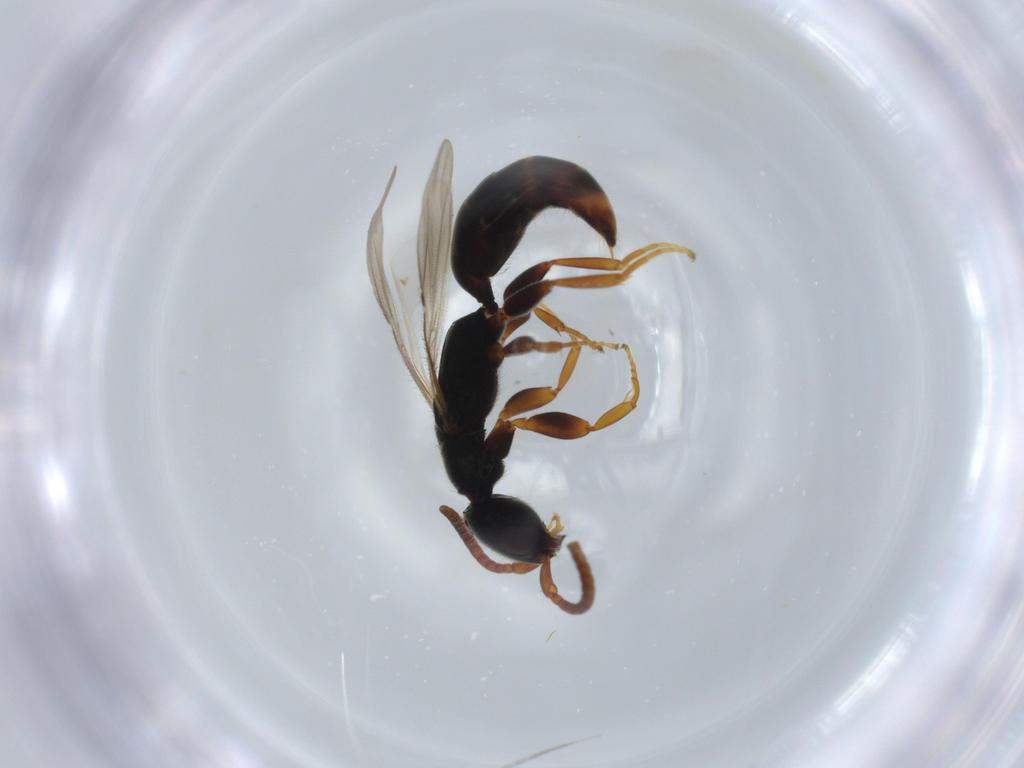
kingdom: Animalia
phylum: Arthropoda
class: Insecta
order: Hymenoptera
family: Bethylidae
